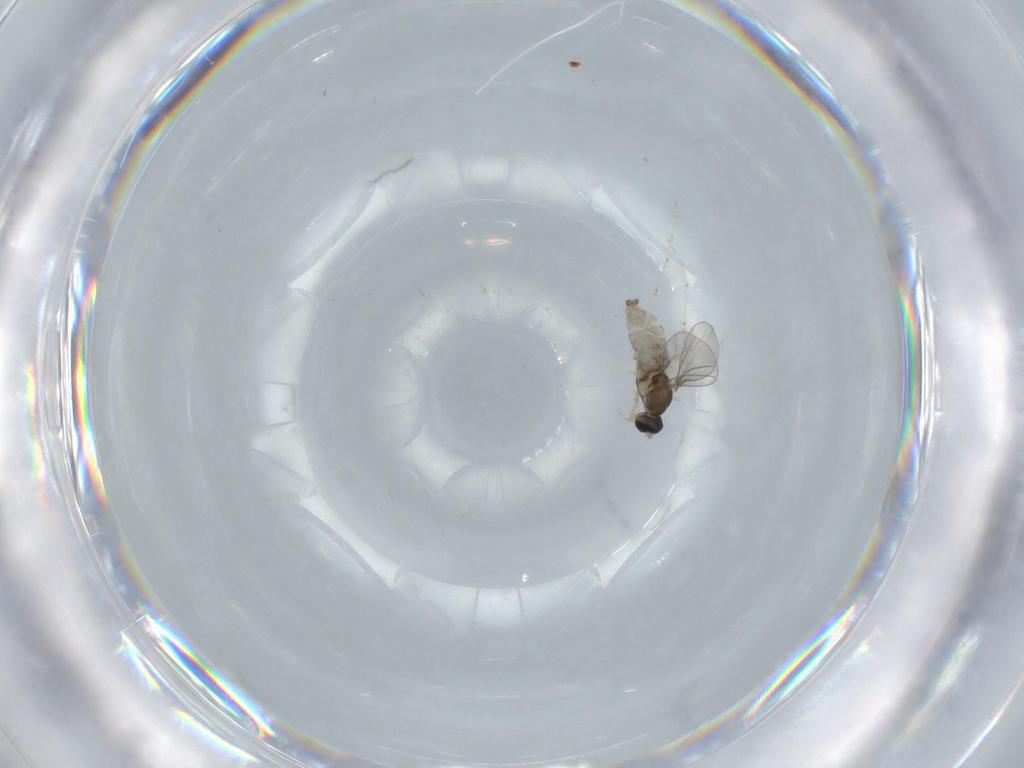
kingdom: Animalia
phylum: Arthropoda
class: Insecta
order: Diptera
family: Cecidomyiidae
